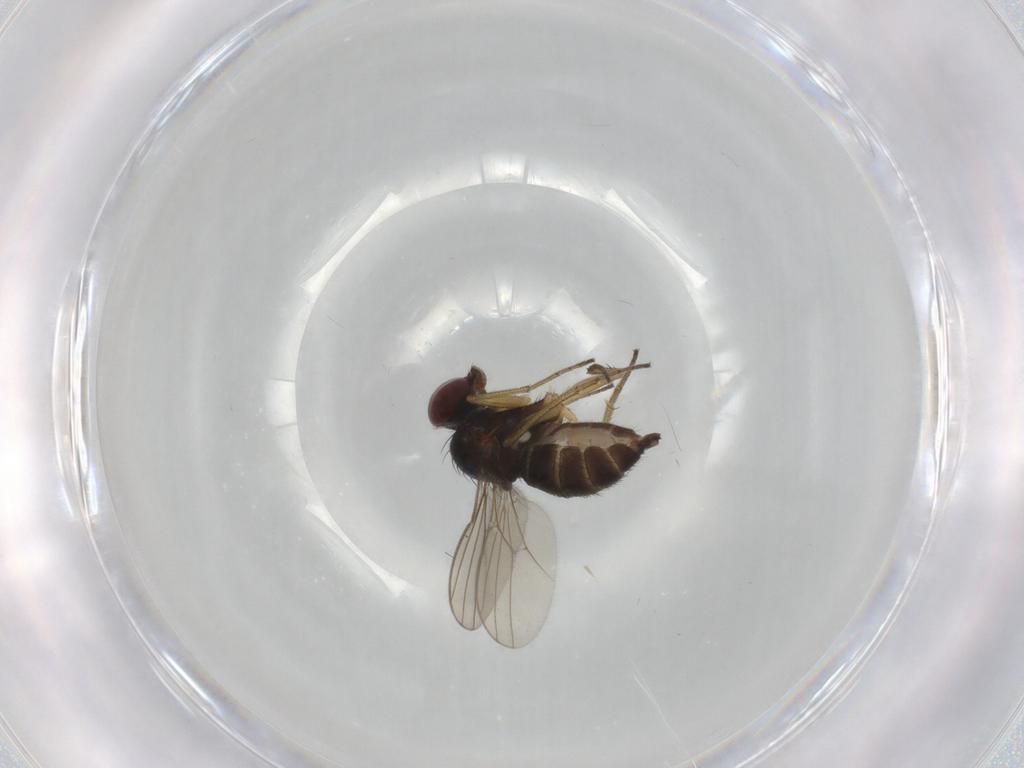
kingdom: Animalia
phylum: Arthropoda
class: Insecta
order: Diptera
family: Dolichopodidae
